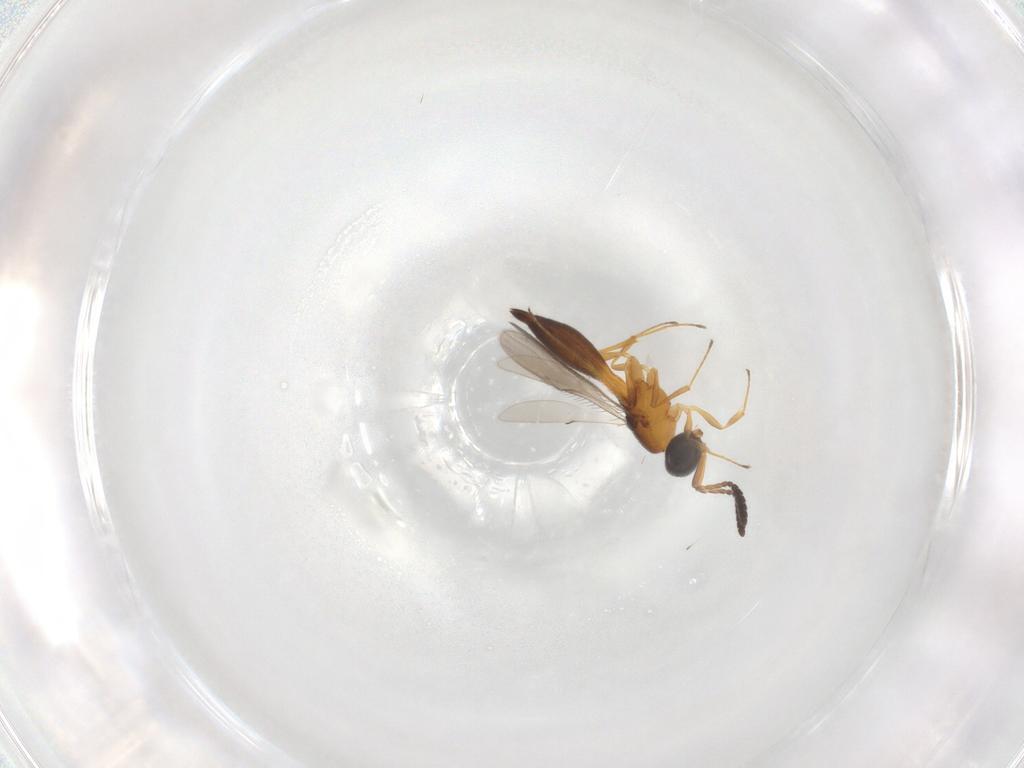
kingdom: Animalia
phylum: Arthropoda
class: Insecta
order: Hymenoptera
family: Scelionidae
